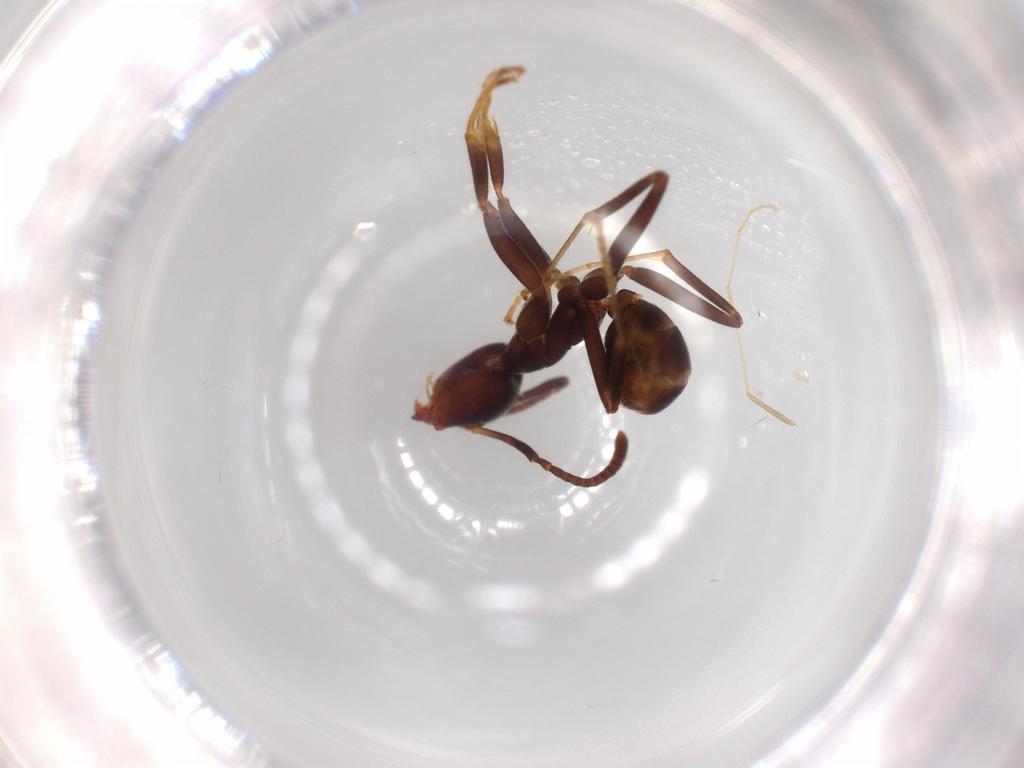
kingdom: Animalia
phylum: Arthropoda
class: Insecta
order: Hymenoptera
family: Formicidae
